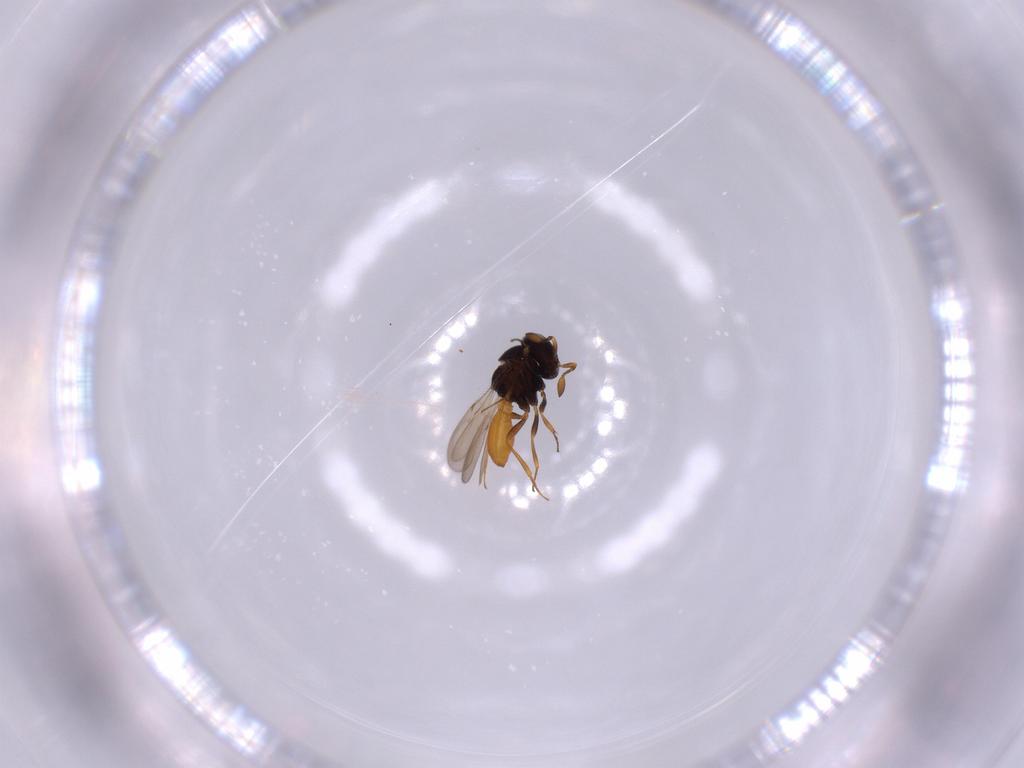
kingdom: Animalia
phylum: Arthropoda
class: Insecta
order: Hymenoptera
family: Scelionidae
